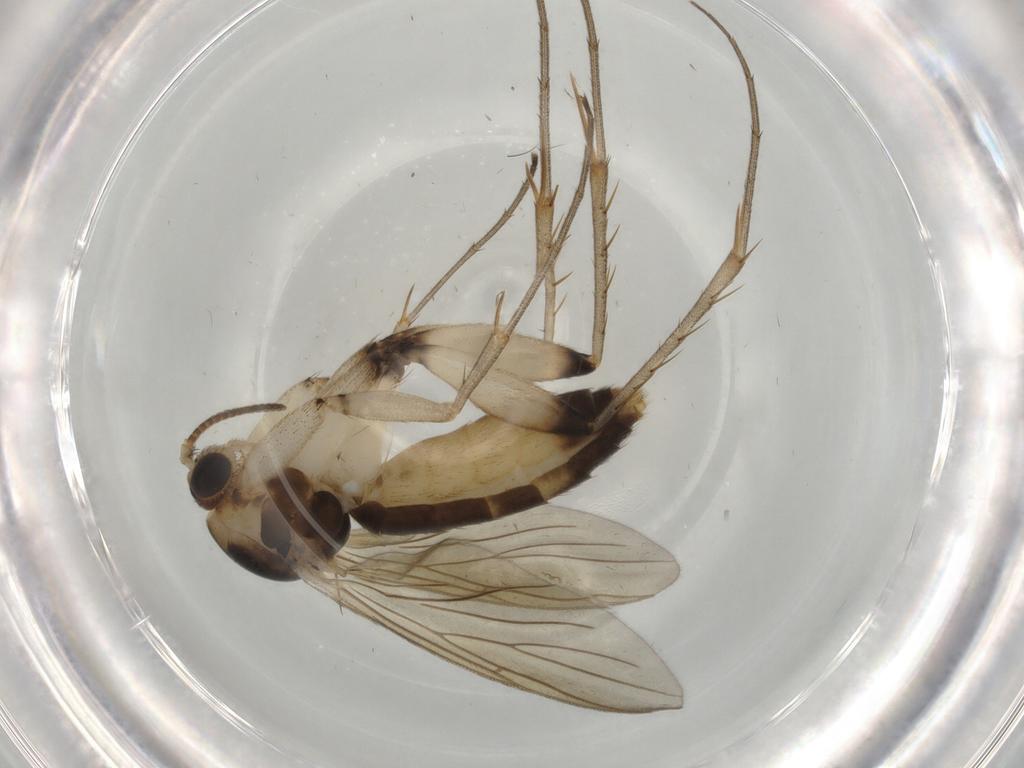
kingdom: Animalia
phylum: Arthropoda
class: Insecta
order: Diptera
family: Mycetophilidae
